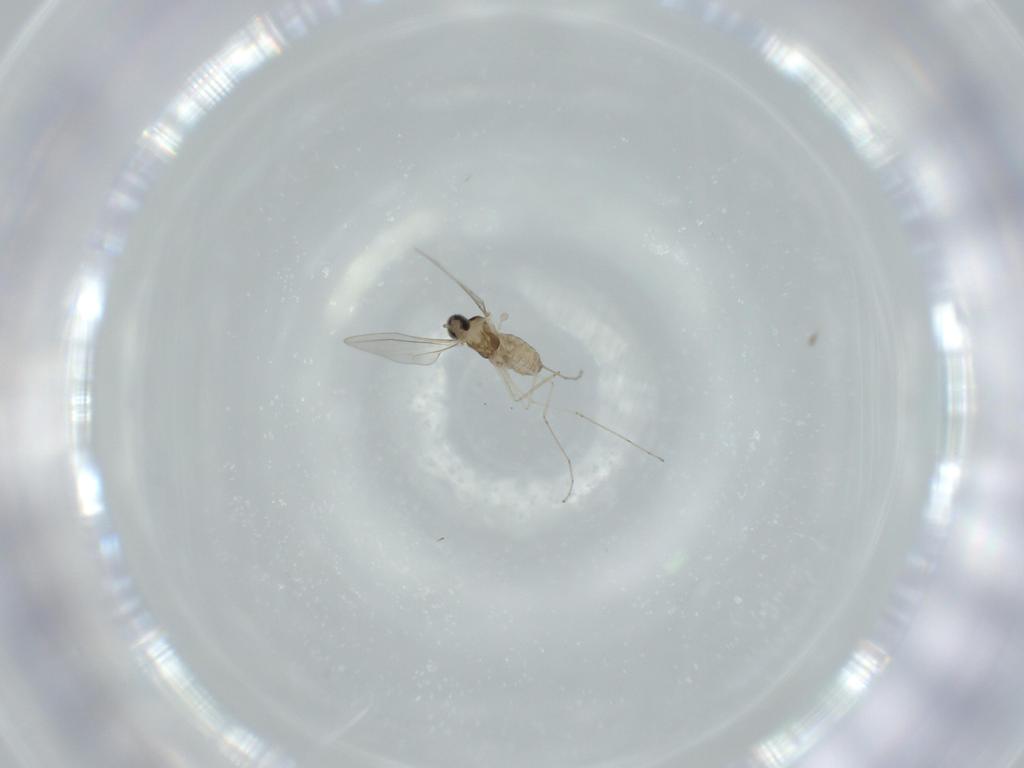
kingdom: Animalia
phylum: Arthropoda
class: Insecta
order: Diptera
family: Cecidomyiidae
